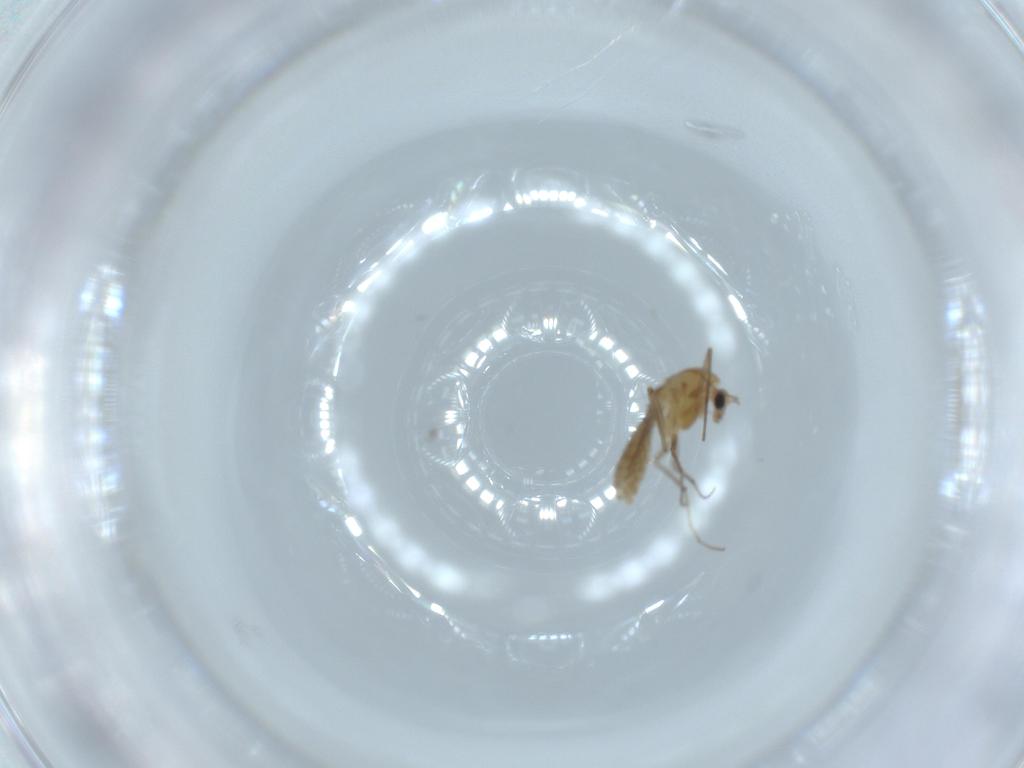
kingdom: Animalia
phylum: Arthropoda
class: Insecta
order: Diptera
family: Chironomidae
